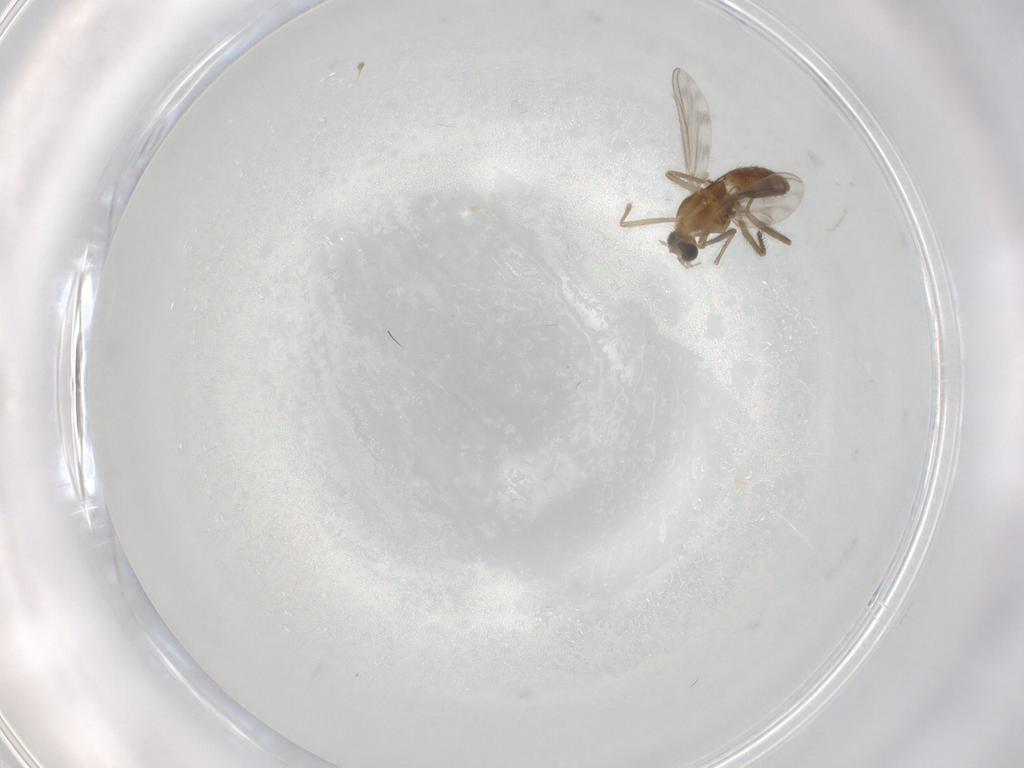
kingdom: Animalia
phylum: Arthropoda
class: Insecta
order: Diptera
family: Chironomidae
